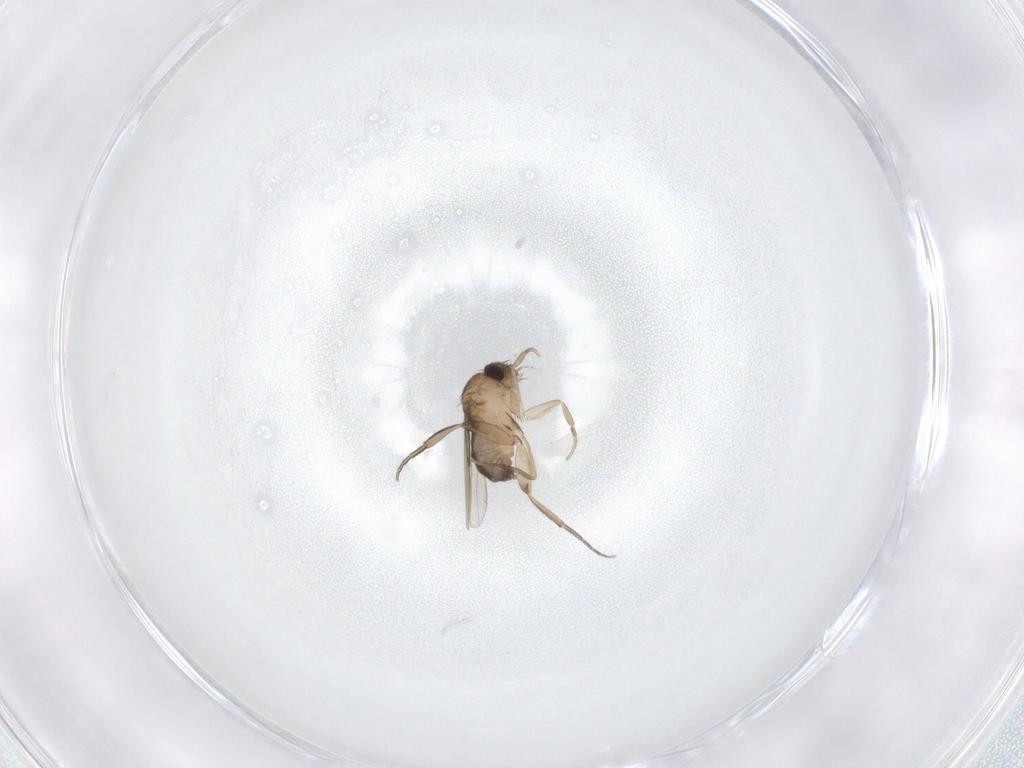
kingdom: Animalia
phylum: Arthropoda
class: Insecta
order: Diptera
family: Phoridae
